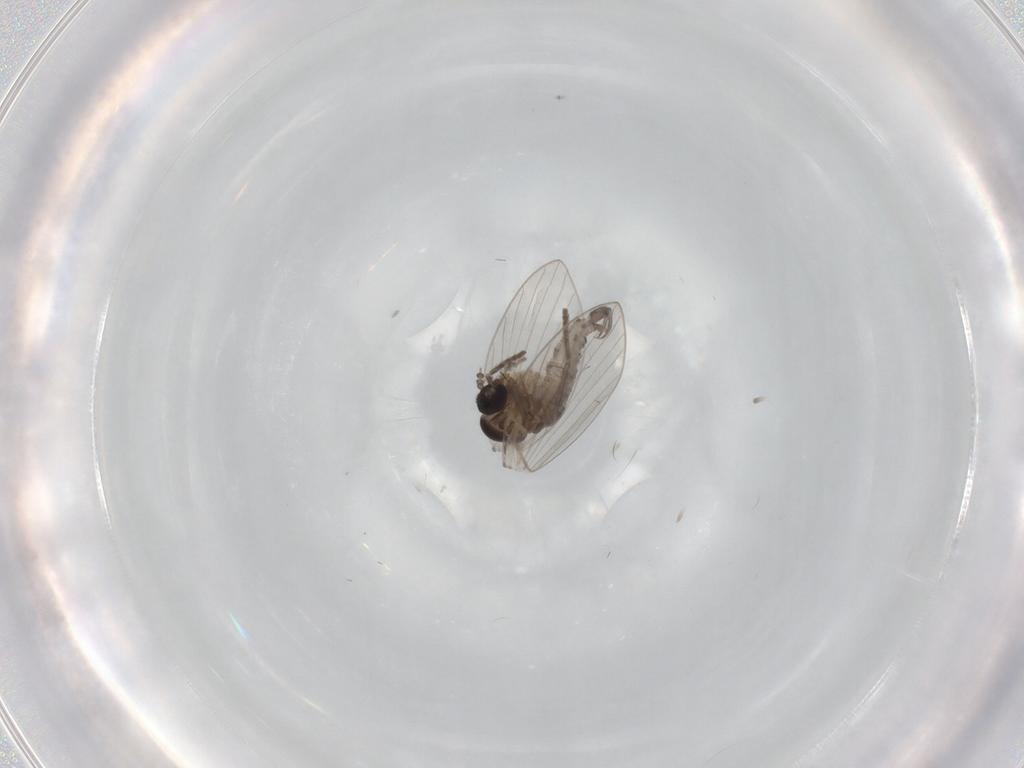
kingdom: Animalia
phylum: Arthropoda
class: Insecta
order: Diptera
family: Psychodidae
